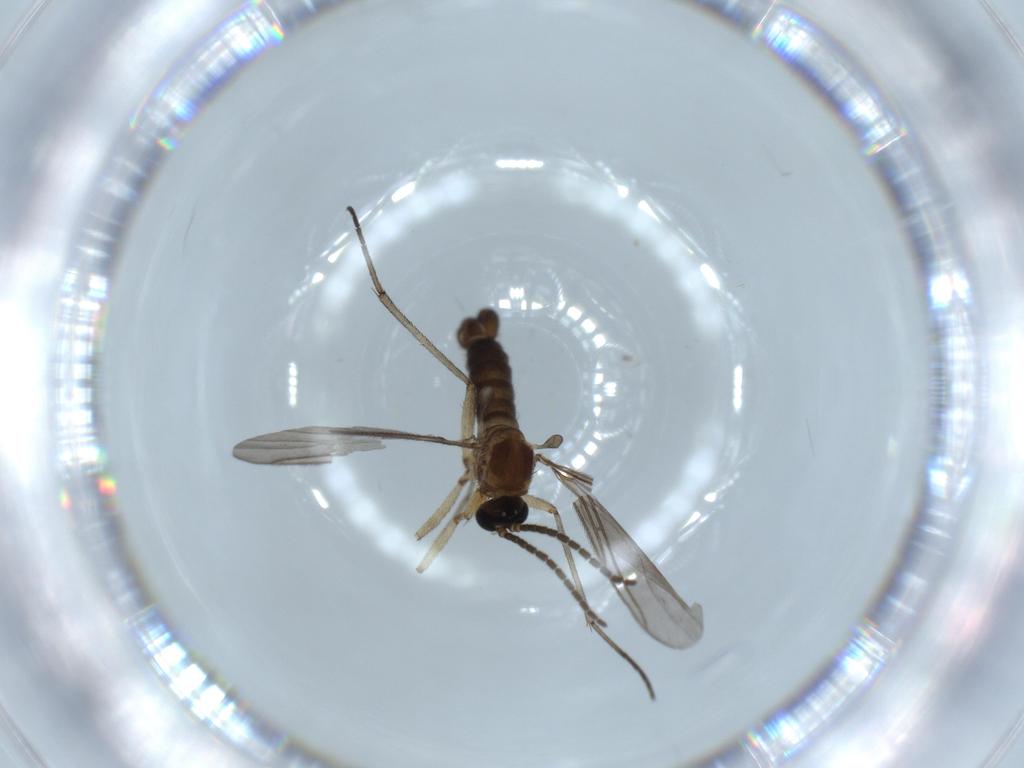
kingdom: Animalia
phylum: Arthropoda
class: Insecta
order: Diptera
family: Sciaridae
